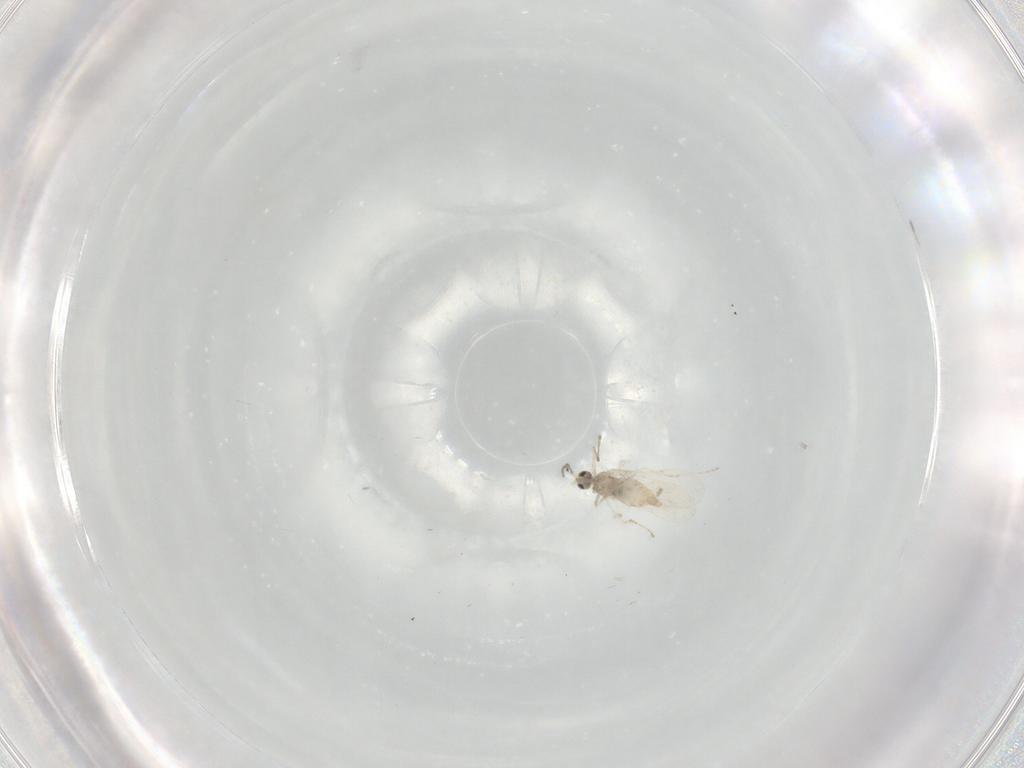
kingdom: Animalia
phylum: Arthropoda
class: Insecta
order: Diptera
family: Cecidomyiidae
